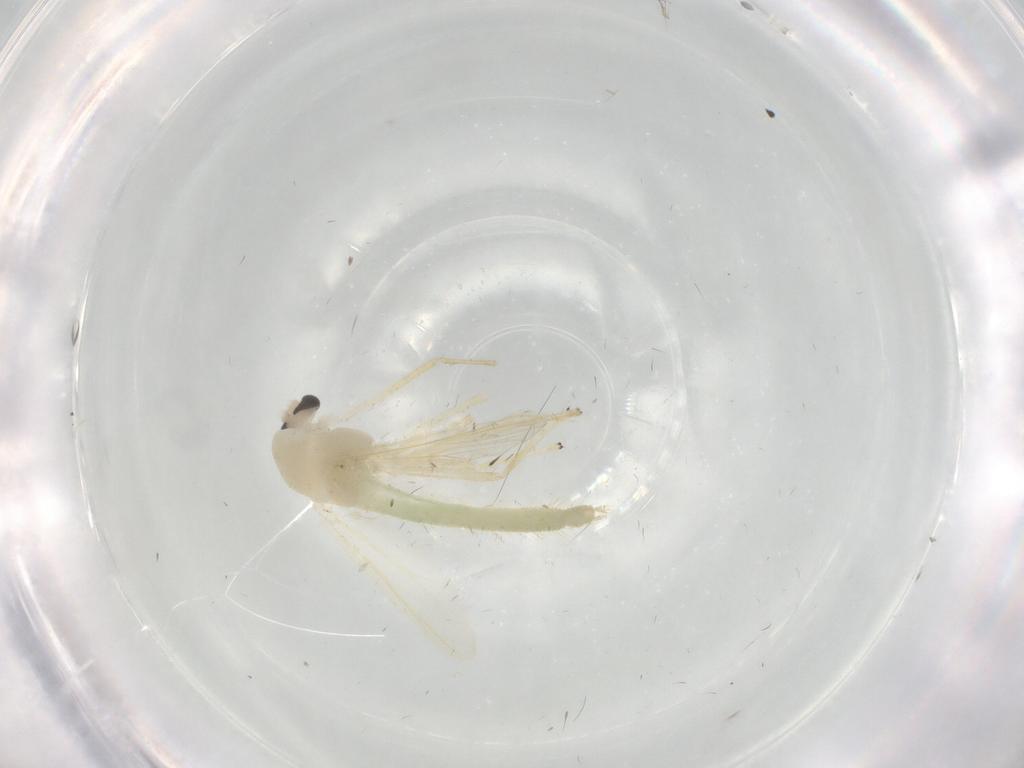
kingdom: Animalia
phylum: Arthropoda
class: Insecta
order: Diptera
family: Chironomidae
